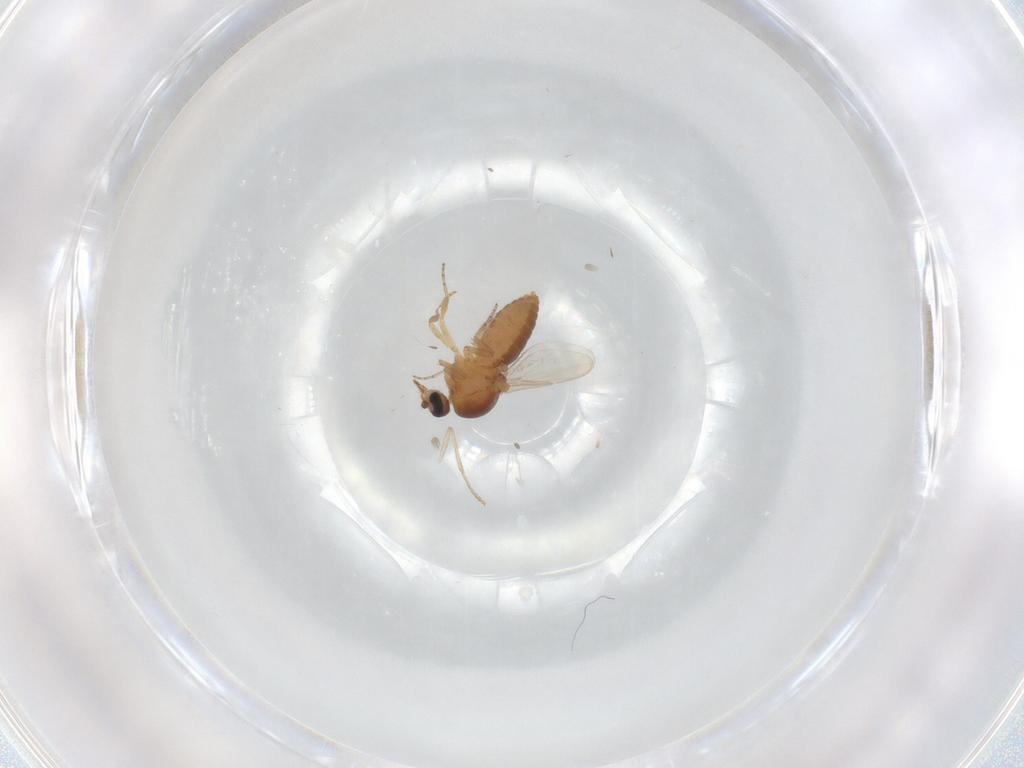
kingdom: Animalia
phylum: Arthropoda
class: Insecta
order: Diptera
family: Ceratopogonidae
